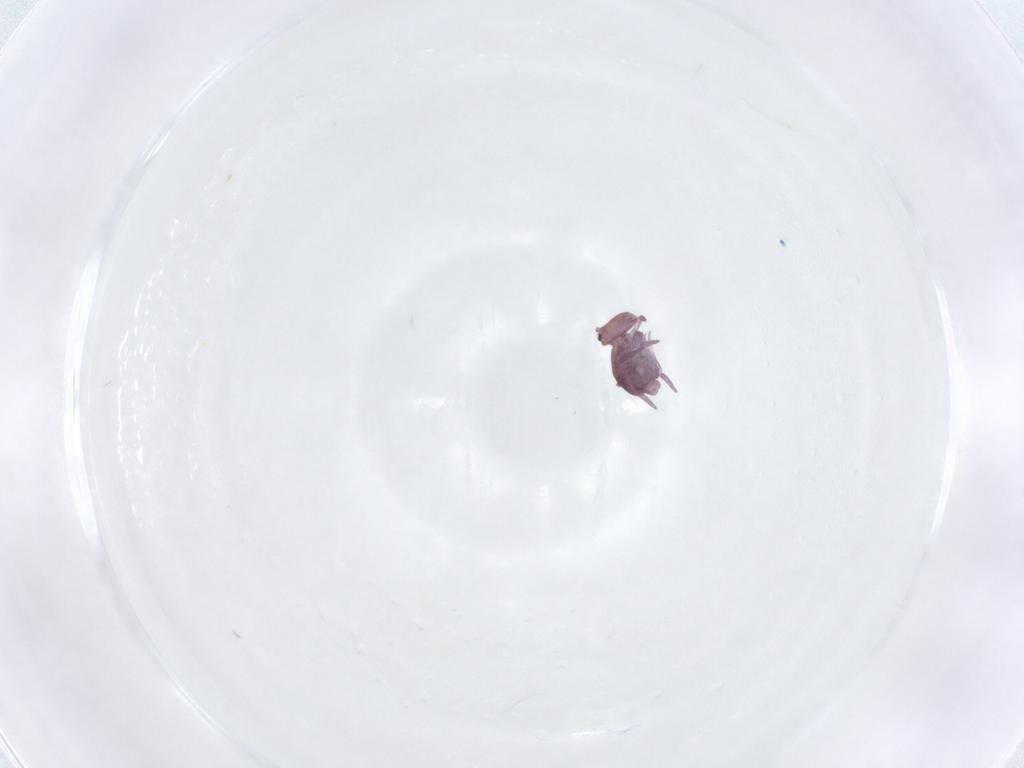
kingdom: Animalia
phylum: Arthropoda
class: Collembola
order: Symphypleona
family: Dicyrtomidae
